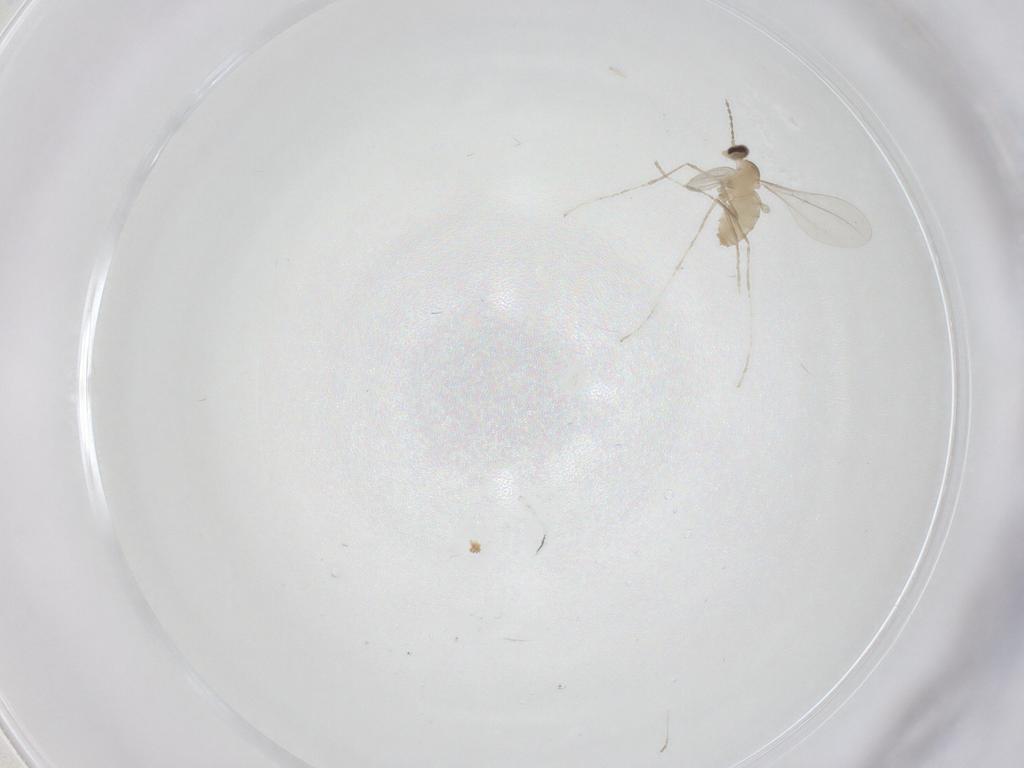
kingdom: Animalia
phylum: Arthropoda
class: Insecta
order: Diptera
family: Cecidomyiidae
